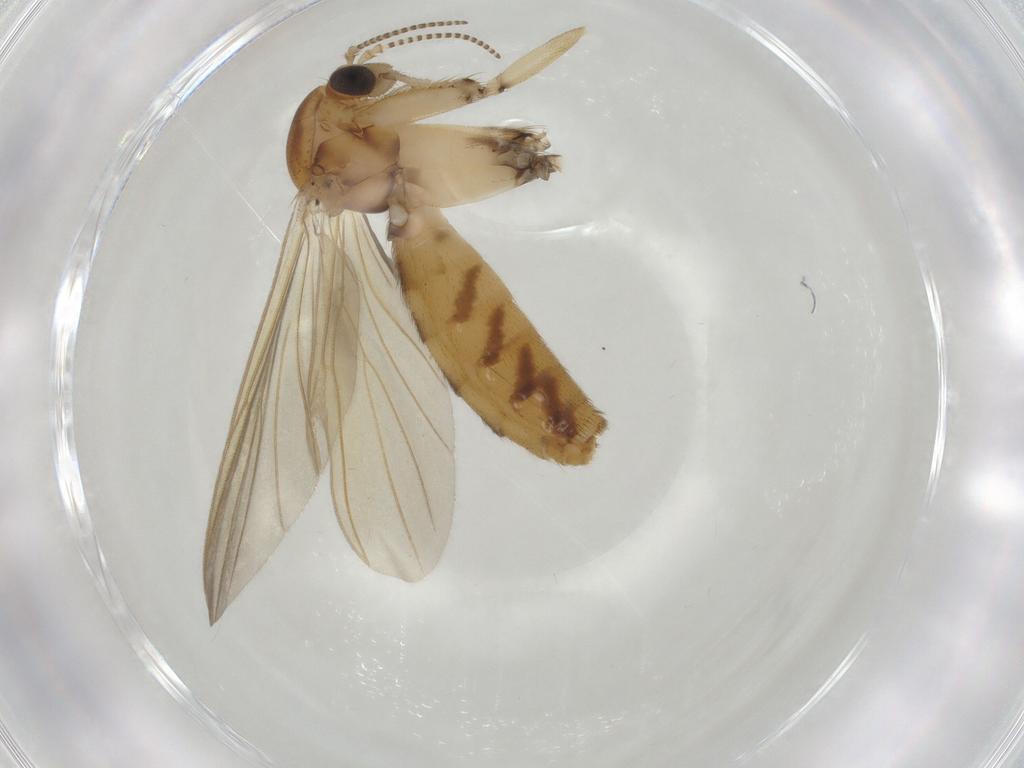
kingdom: Animalia
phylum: Arthropoda
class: Insecta
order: Diptera
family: Mycetophilidae
